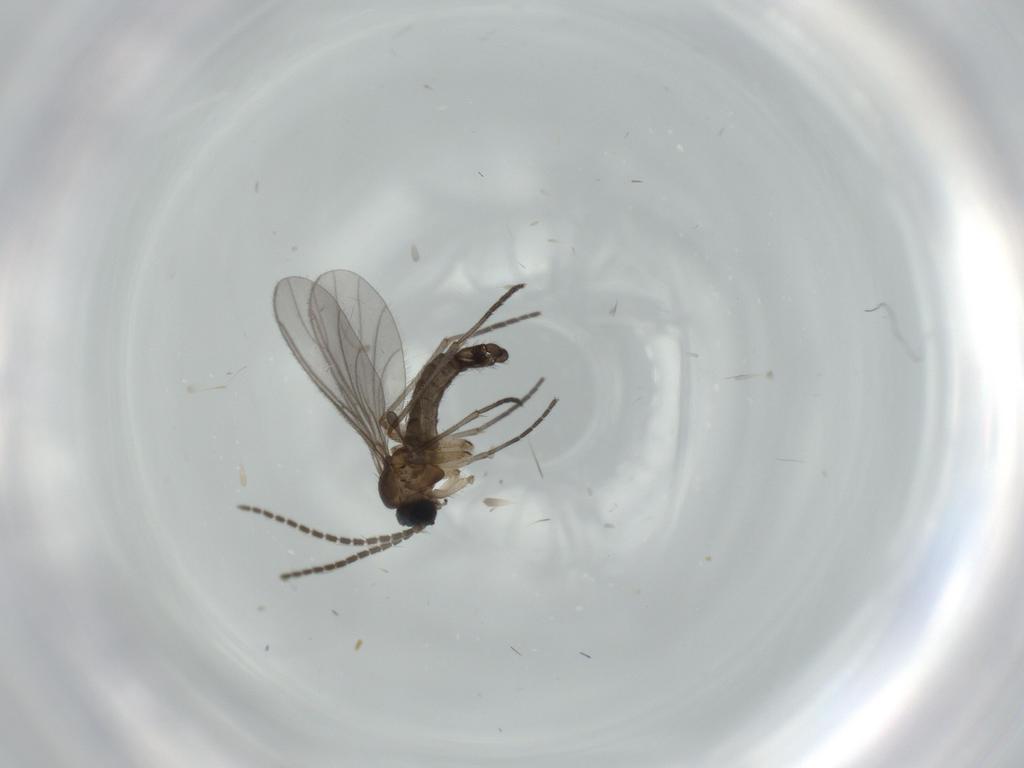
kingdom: Animalia
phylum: Arthropoda
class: Insecta
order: Diptera
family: Sciaridae
